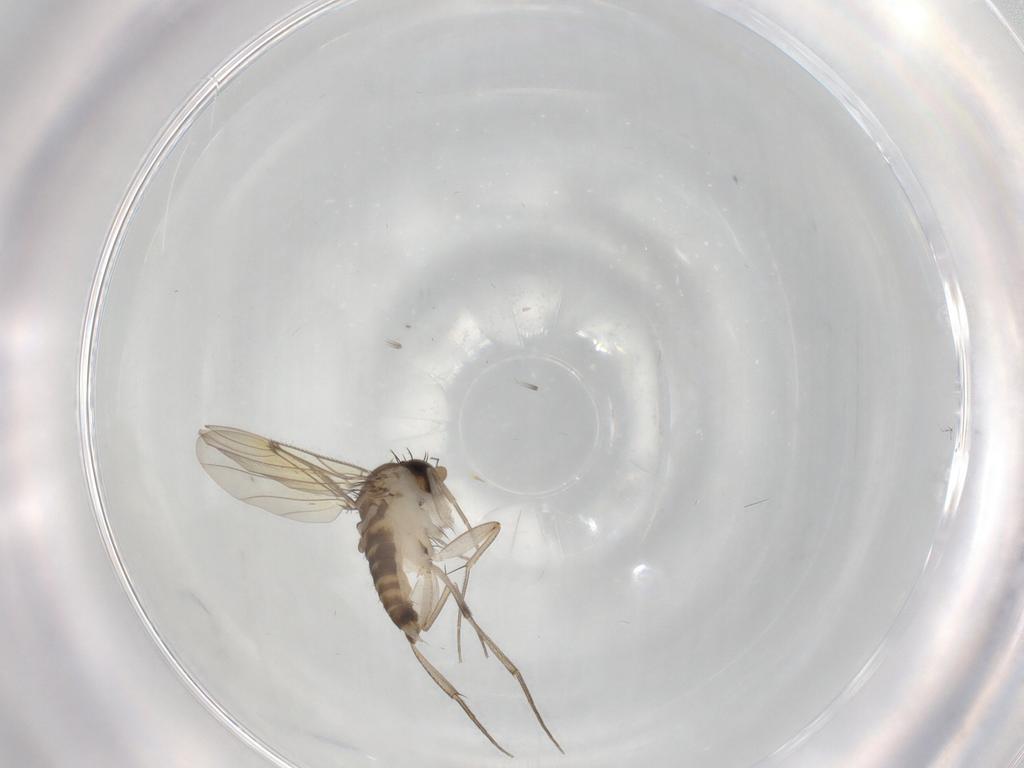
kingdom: Animalia
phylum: Arthropoda
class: Insecta
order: Diptera
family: Phoridae
